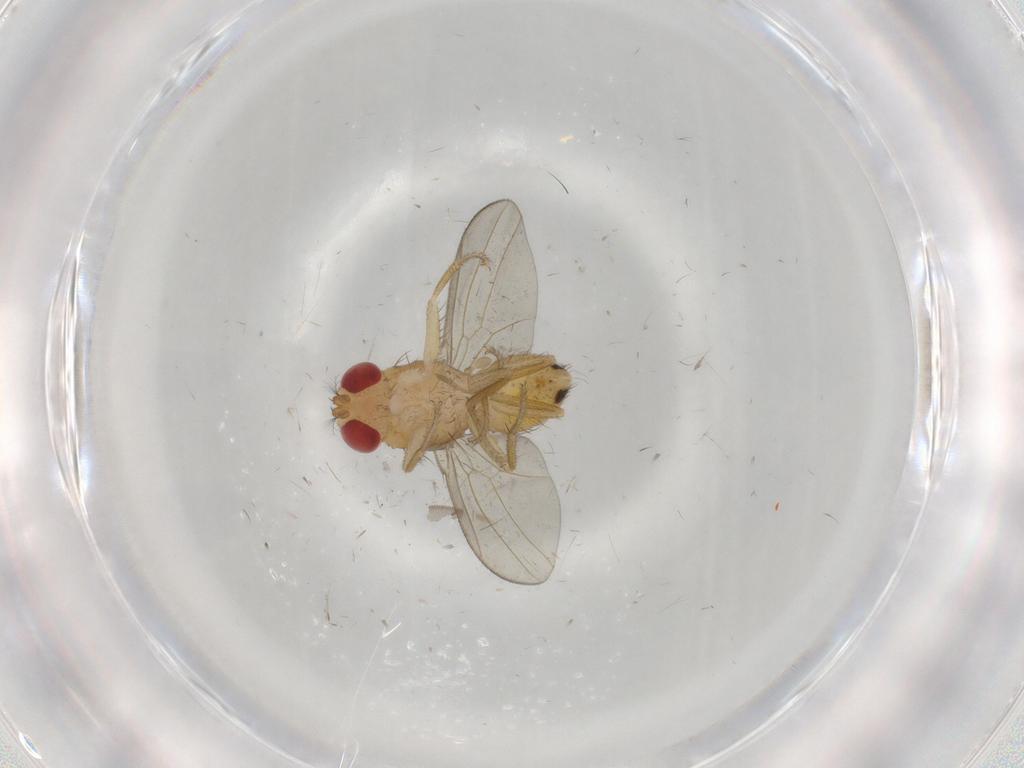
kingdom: Animalia
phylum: Arthropoda
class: Insecta
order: Diptera
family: Drosophilidae
